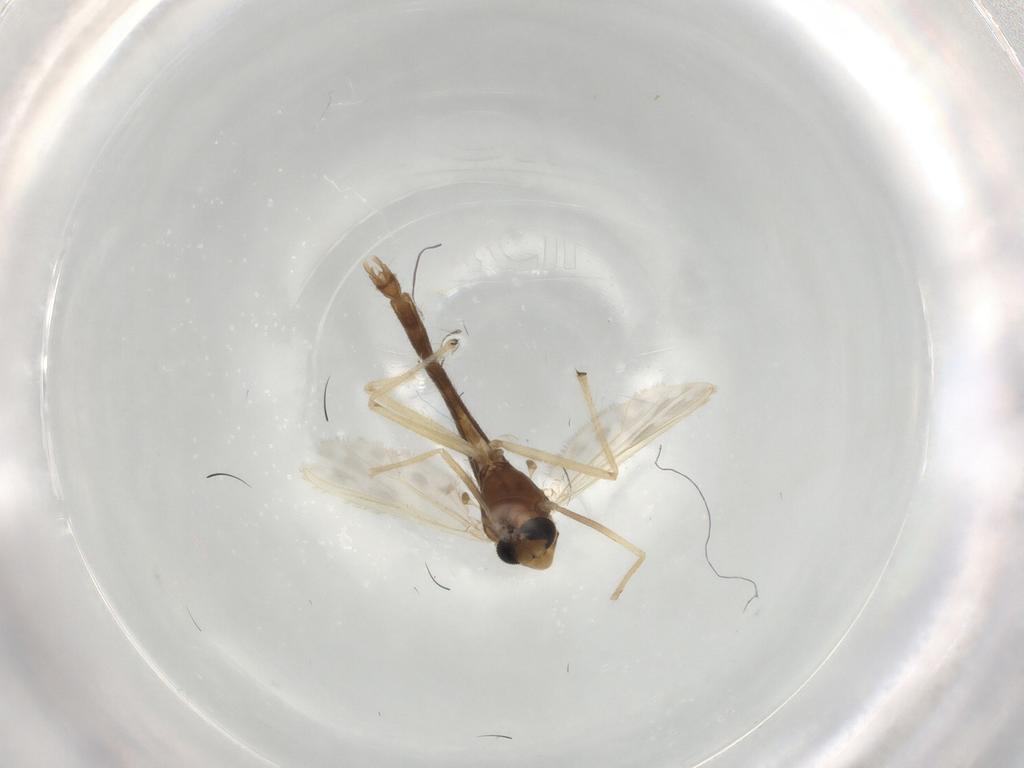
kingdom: Animalia
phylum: Arthropoda
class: Insecta
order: Diptera
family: Chironomidae
